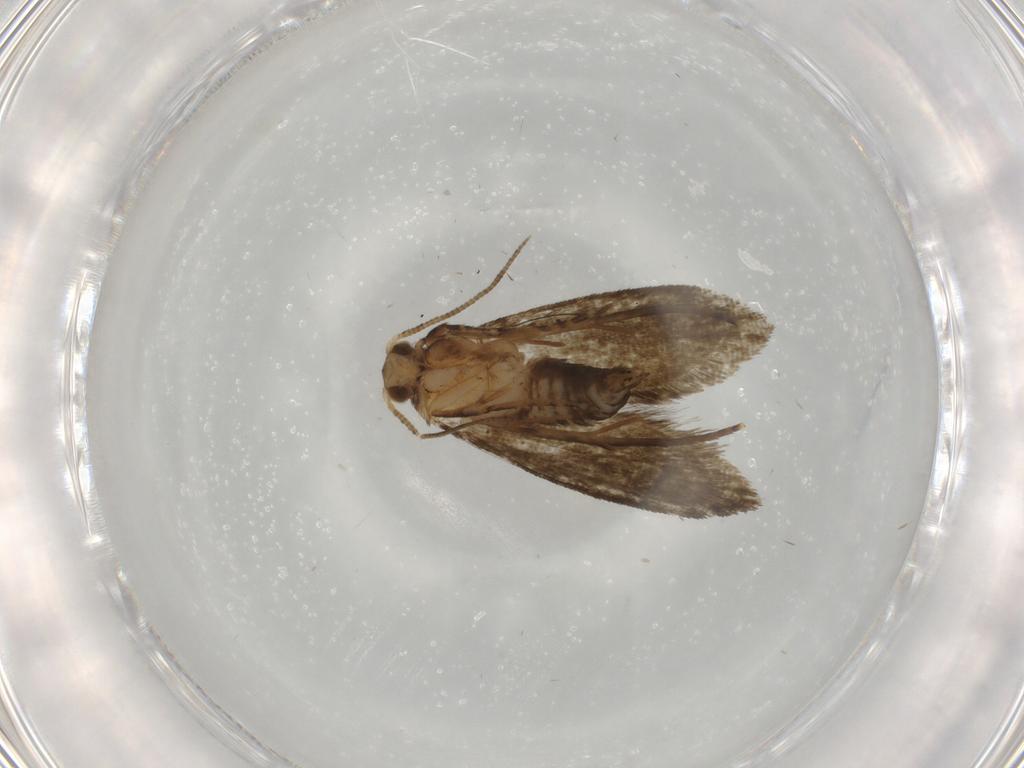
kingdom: Animalia
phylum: Arthropoda
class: Insecta
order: Lepidoptera
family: Crambidae
